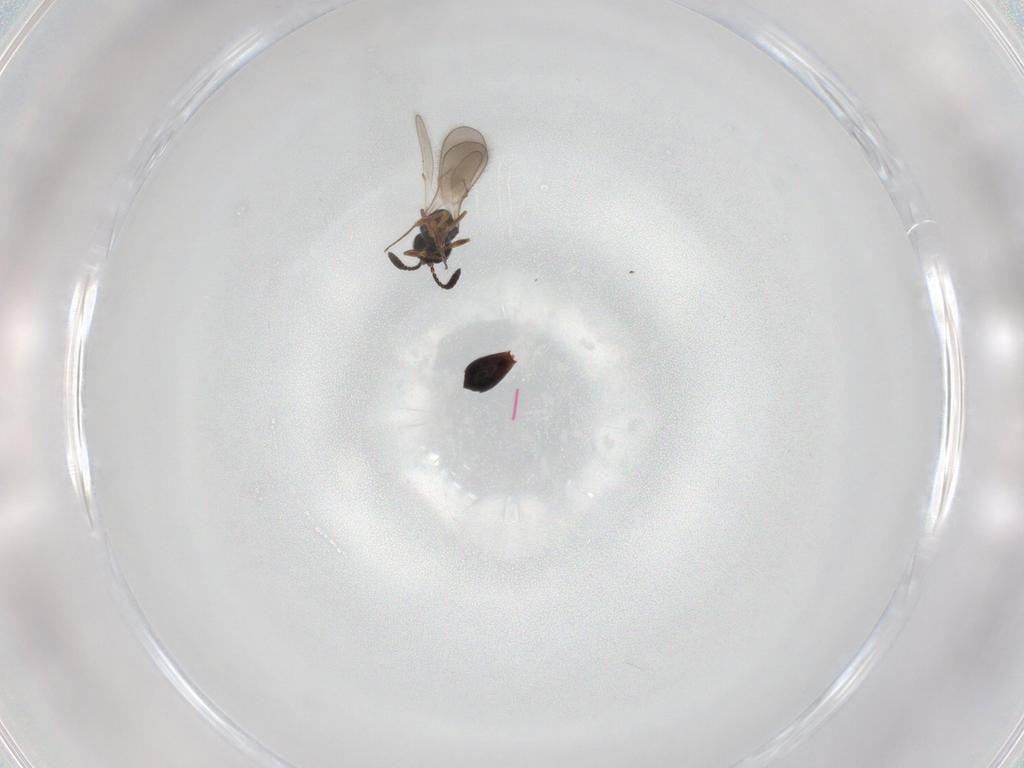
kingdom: Animalia
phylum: Arthropoda
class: Insecta
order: Hymenoptera
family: Scelionidae
